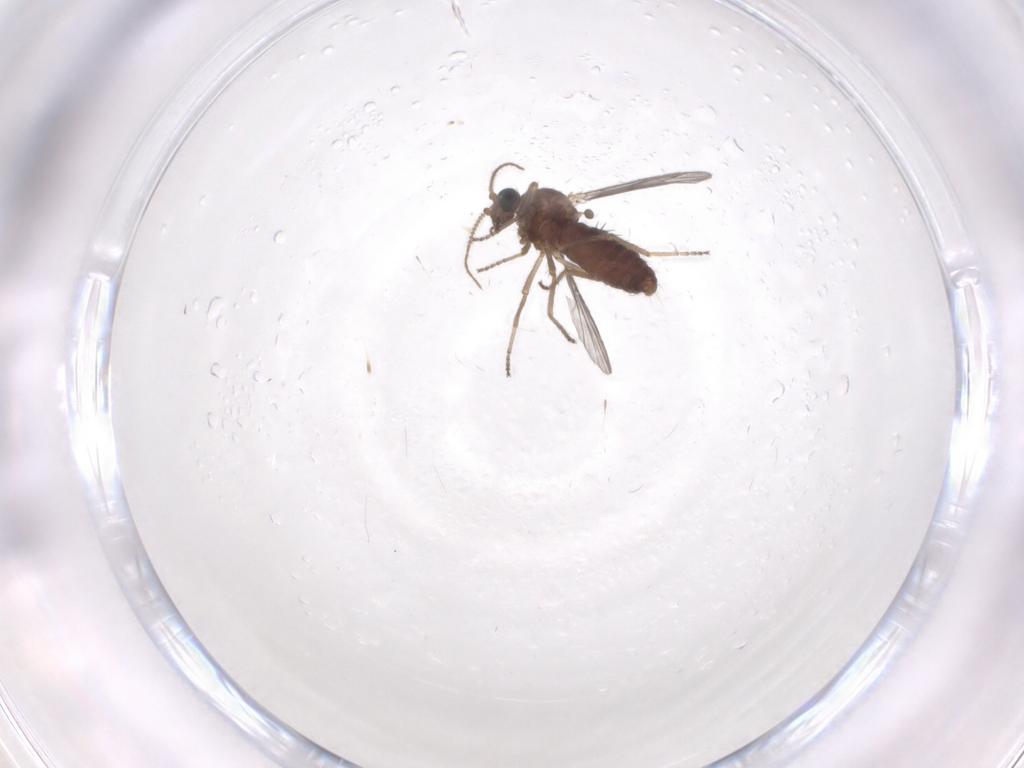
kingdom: Animalia
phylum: Arthropoda
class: Insecta
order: Diptera
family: Ceratopogonidae
